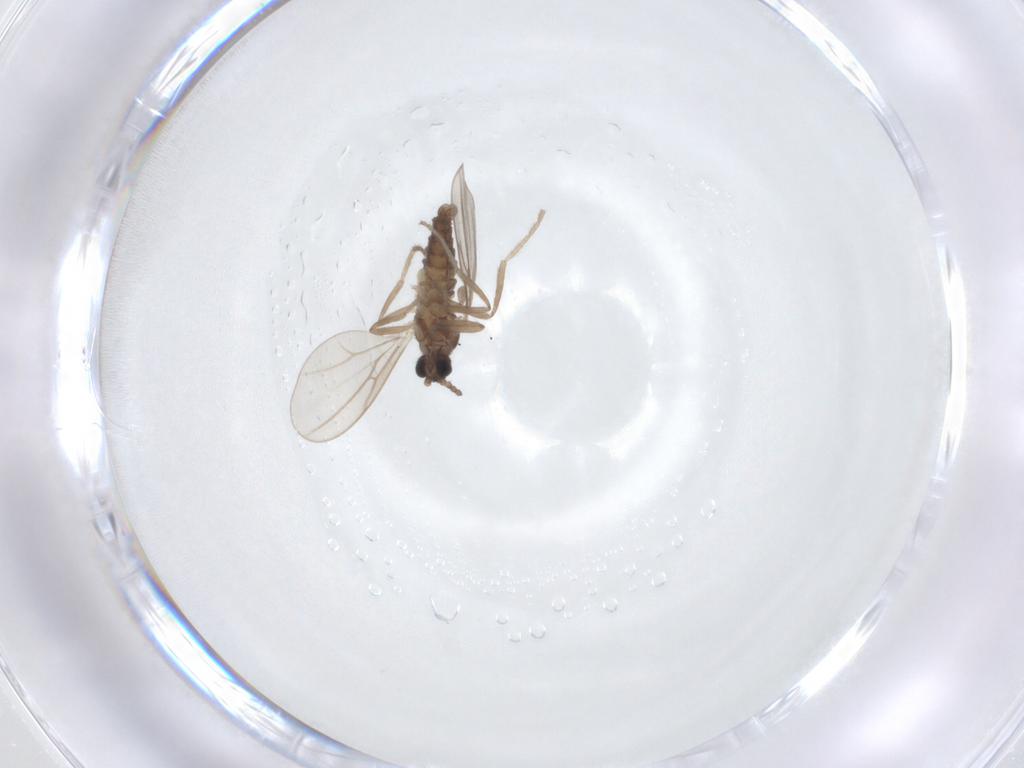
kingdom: Animalia
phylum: Arthropoda
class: Insecta
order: Diptera
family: Cecidomyiidae
